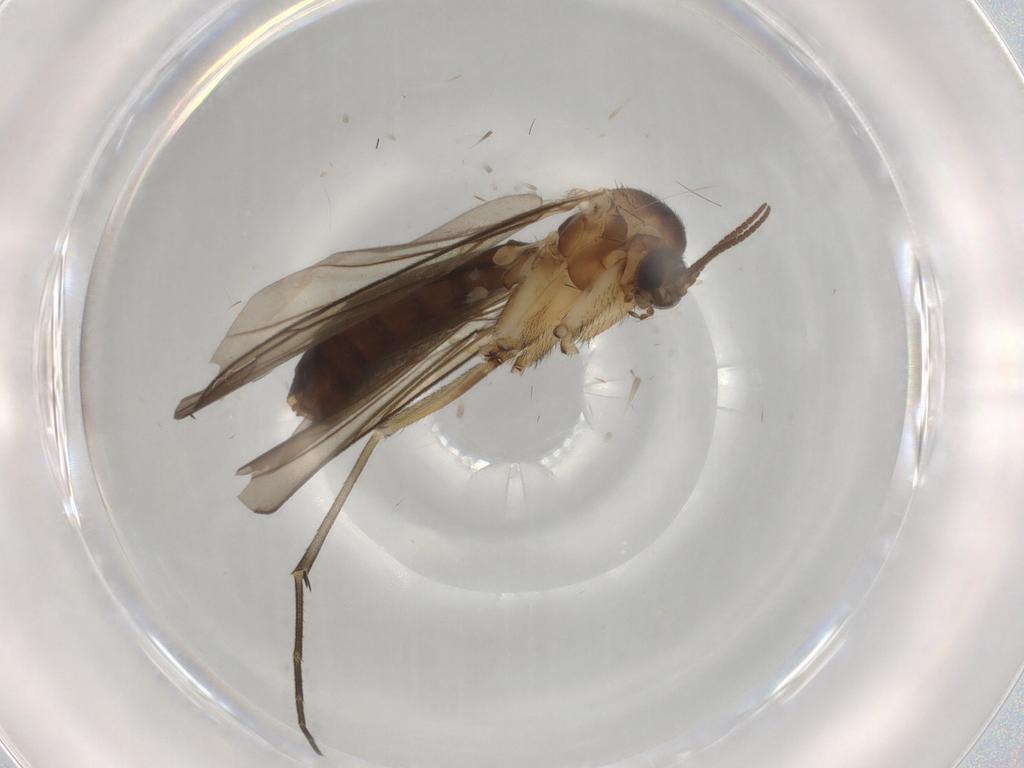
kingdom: Animalia
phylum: Arthropoda
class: Insecta
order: Diptera
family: Keroplatidae
